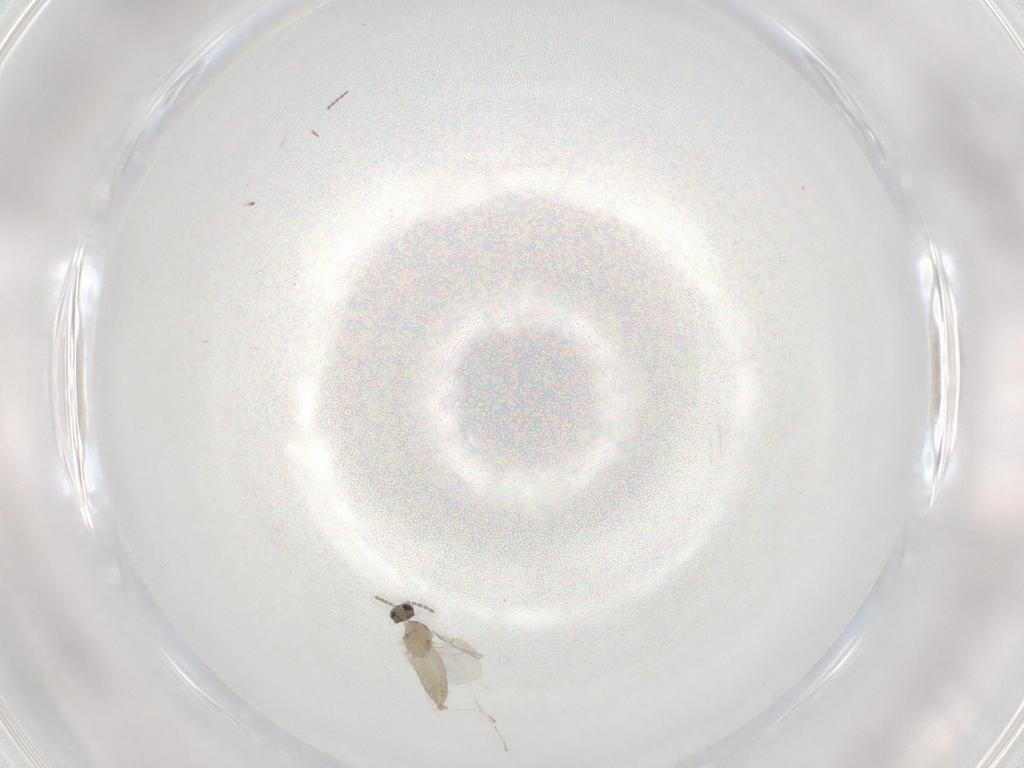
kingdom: Animalia
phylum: Arthropoda
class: Insecta
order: Diptera
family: Cecidomyiidae
